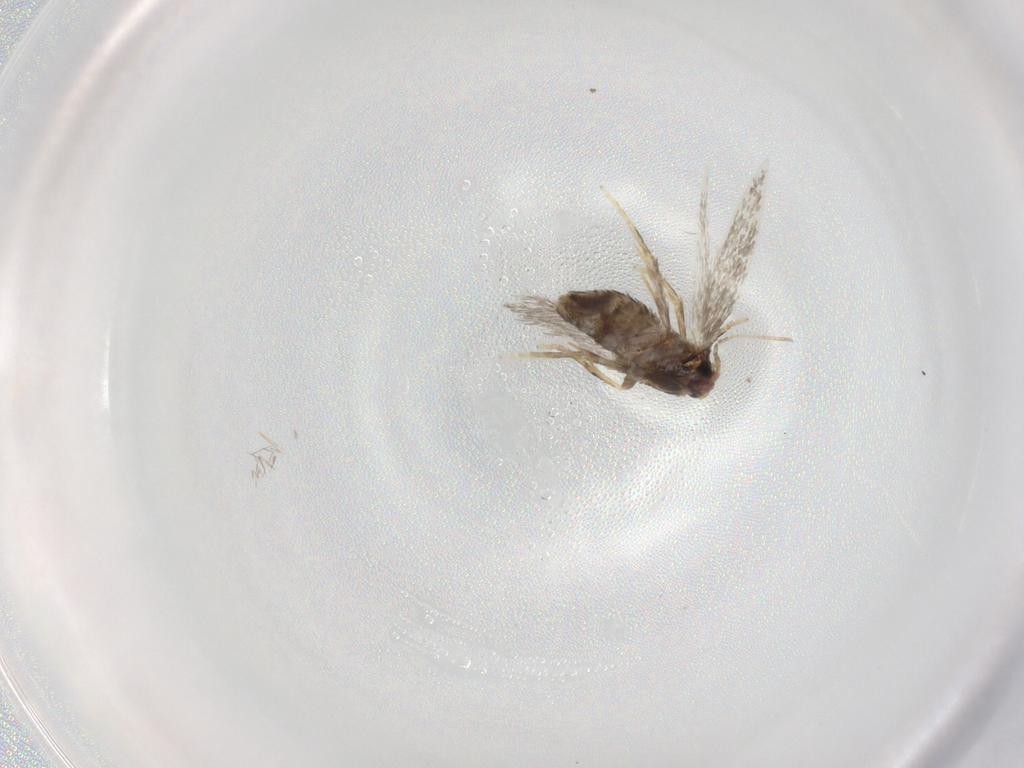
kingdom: Animalia
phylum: Arthropoda
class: Insecta
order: Lepidoptera
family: Nepticulidae
